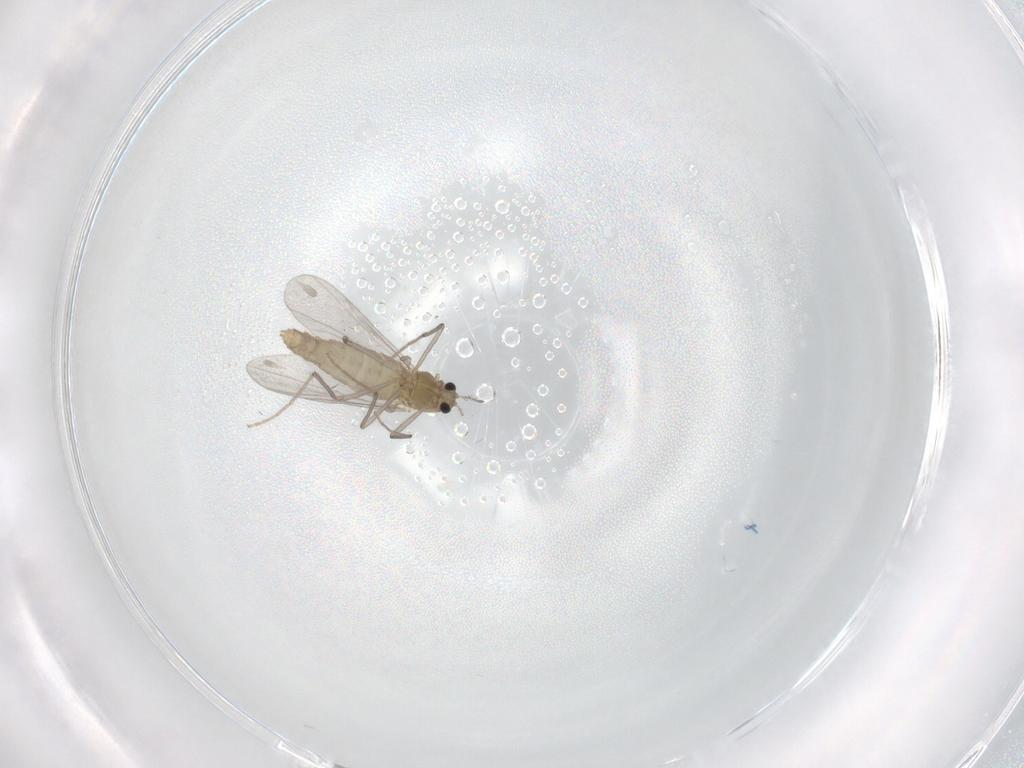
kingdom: Animalia
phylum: Arthropoda
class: Insecta
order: Diptera
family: Chironomidae
